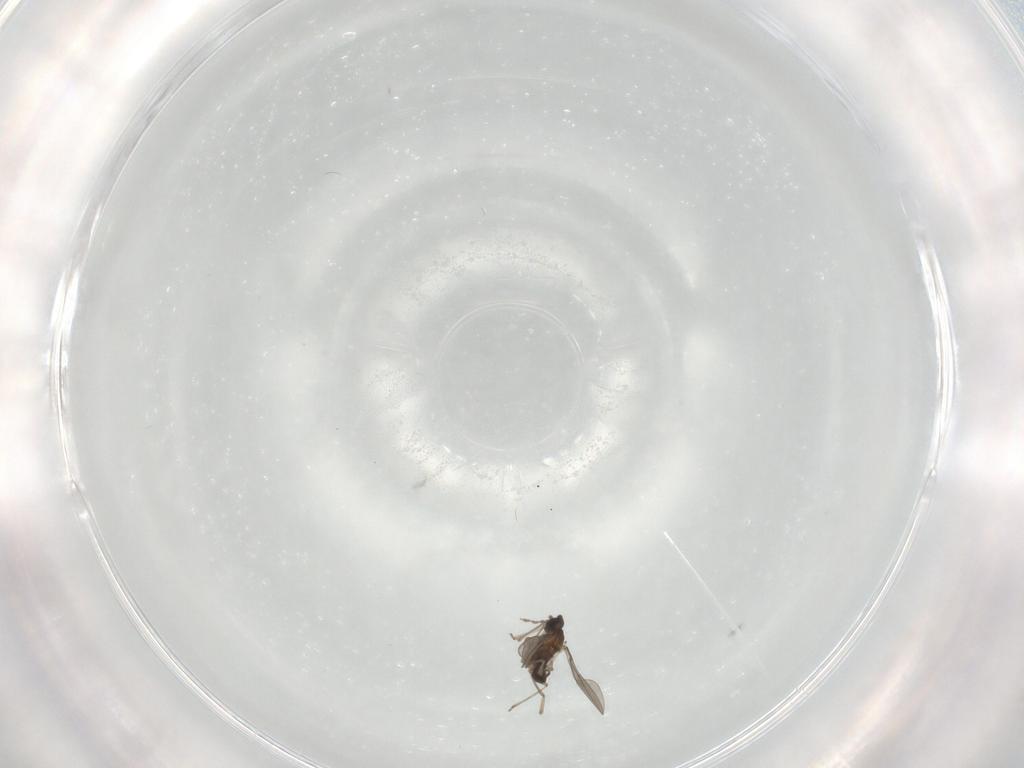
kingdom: Animalia
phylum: Arthropoda
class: Insecta
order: Diptera
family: Cecidomyiidae
